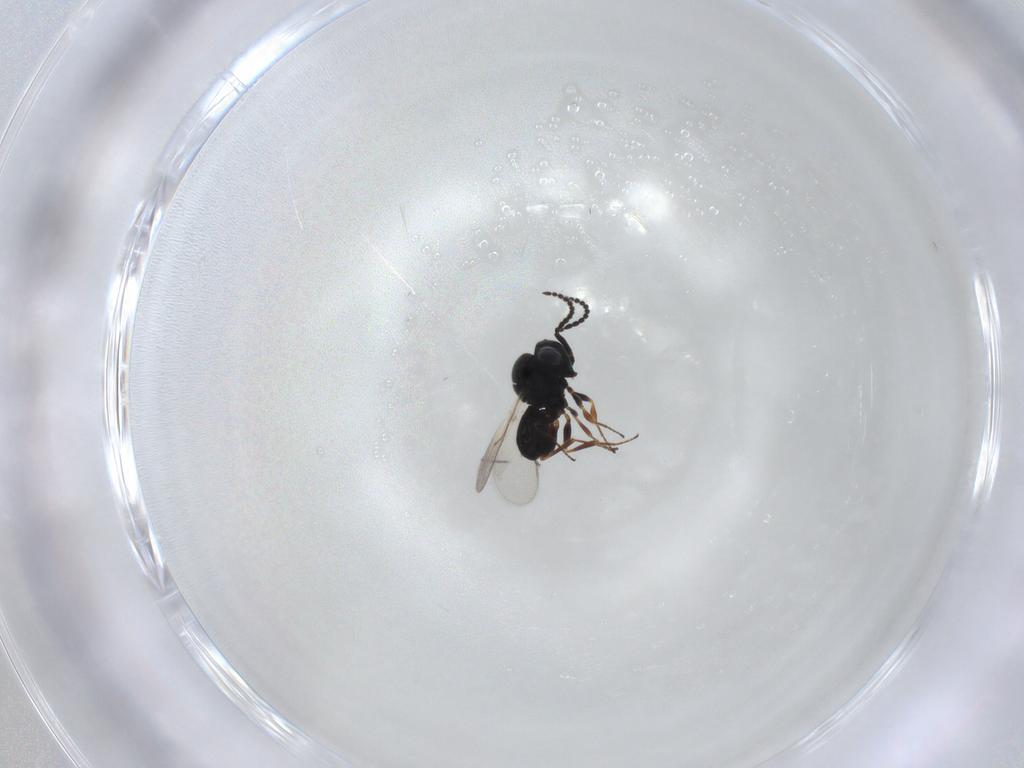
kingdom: Animalia
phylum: Arthropoda
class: Insecta
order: Hymenoptera
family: Scelionidae
